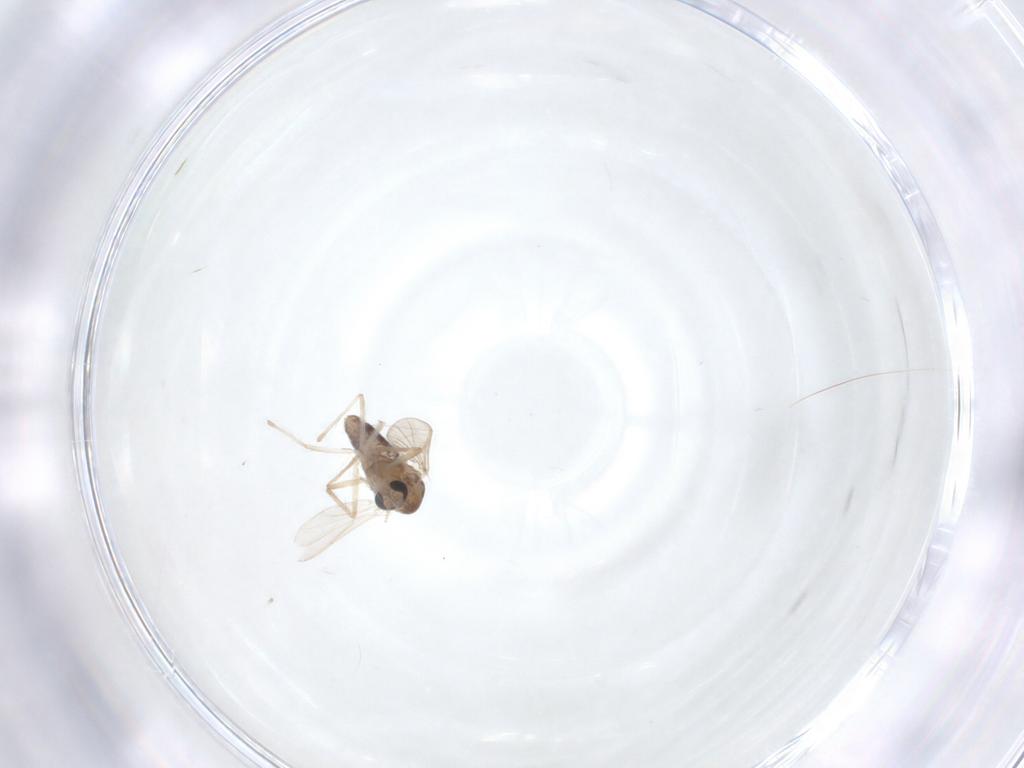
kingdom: Animalia
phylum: Arthropoda
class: Insecta
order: Diptera
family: Chironomidae
